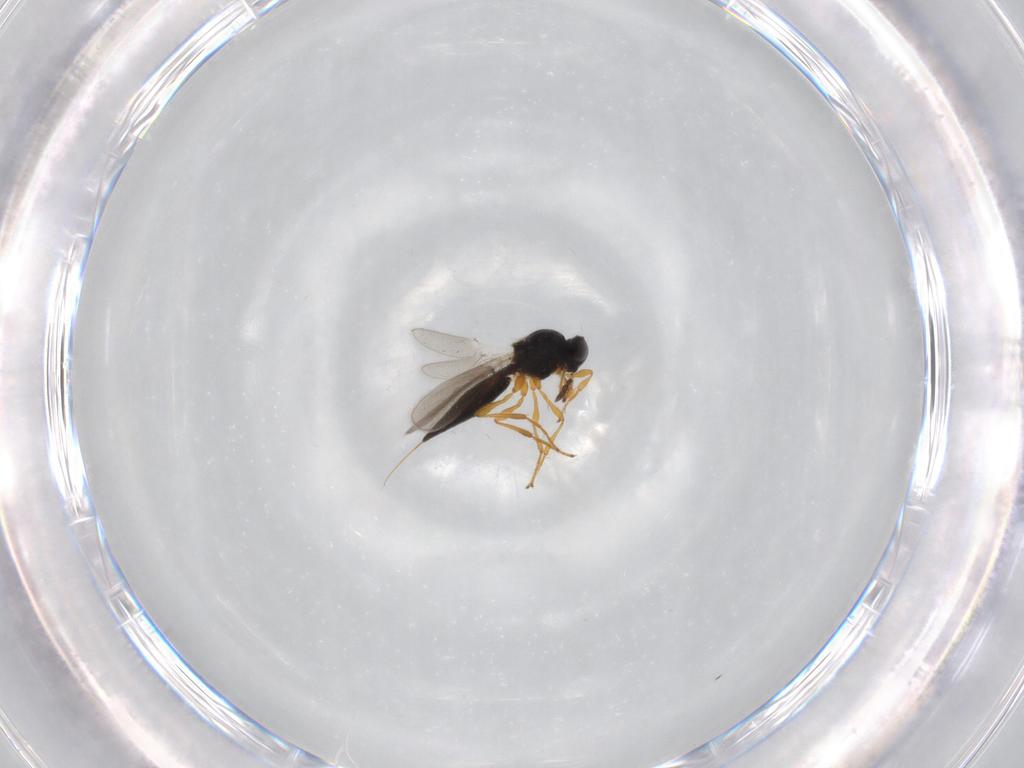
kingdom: Animalia
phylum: Arthropoda
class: Insecta
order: Hymenoptera
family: Platygastridae
